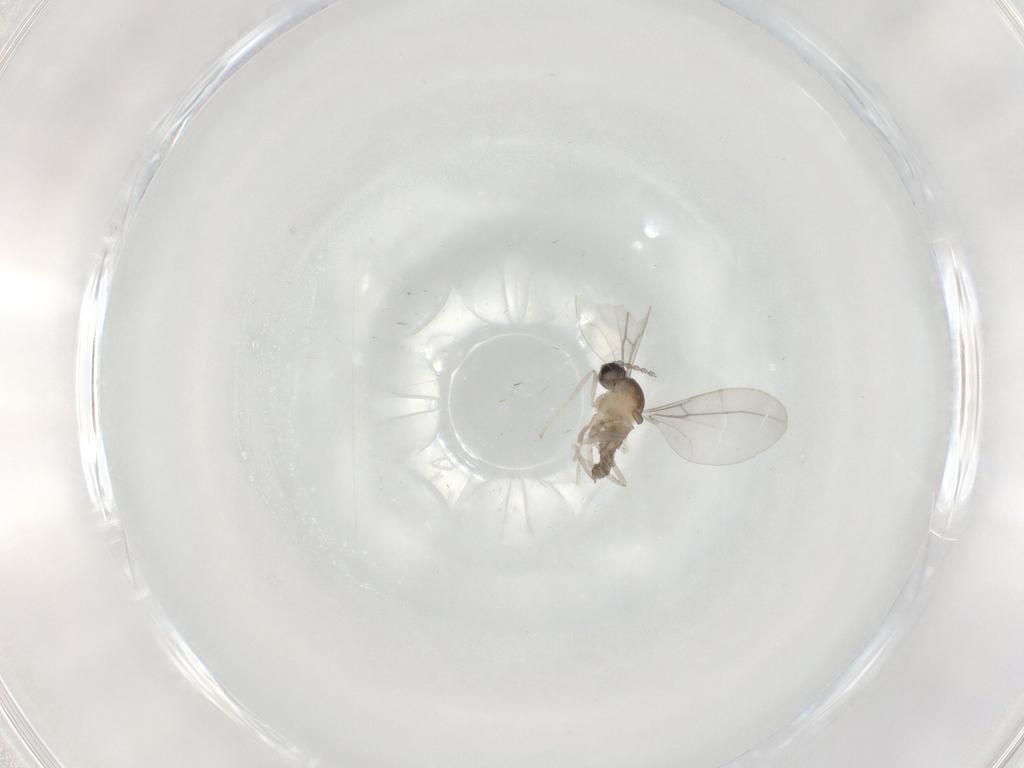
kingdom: Animalia
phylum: Arthropoda
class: Insecta
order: Diptera
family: Cecidomyiidae
